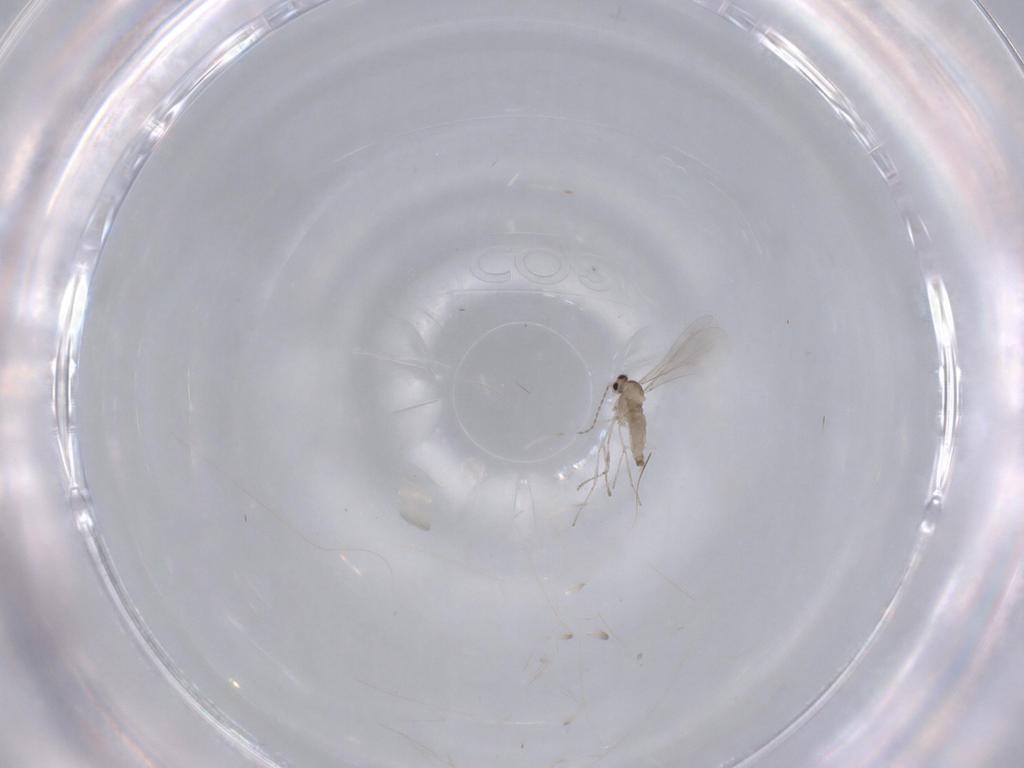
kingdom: Animalia
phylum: Arthropoda
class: Insecta
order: Diptera
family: Cecidomyiidae
